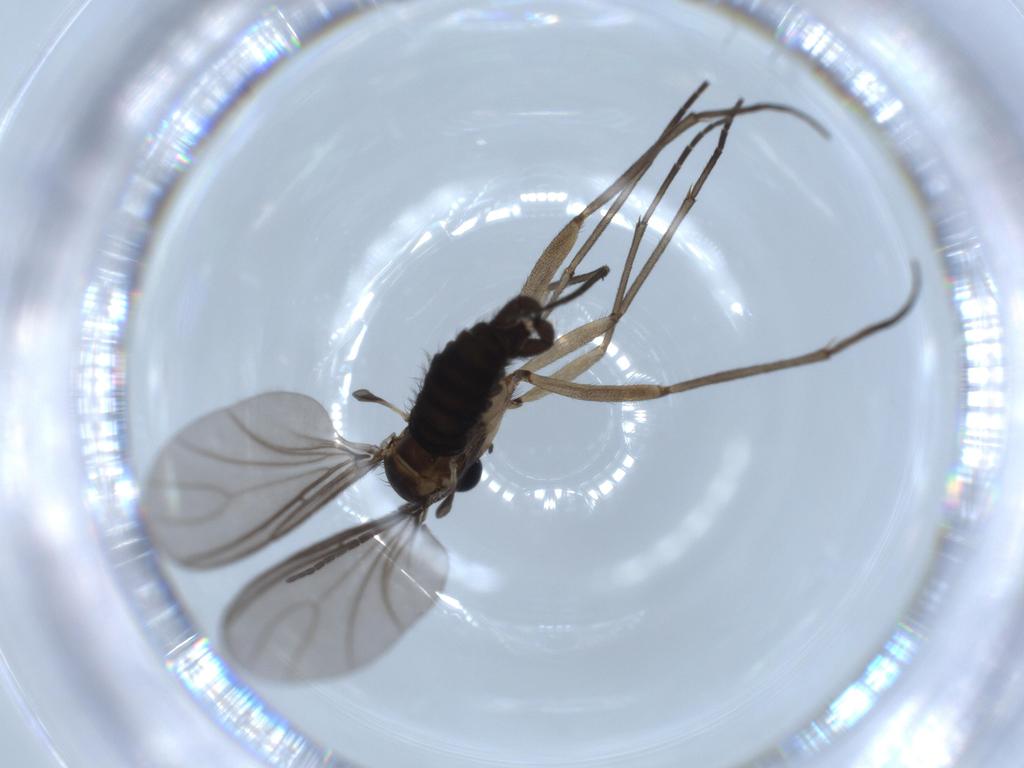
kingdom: Animalia
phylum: Arthropoda
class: Insecta
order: Diptera
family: Sciaridae
